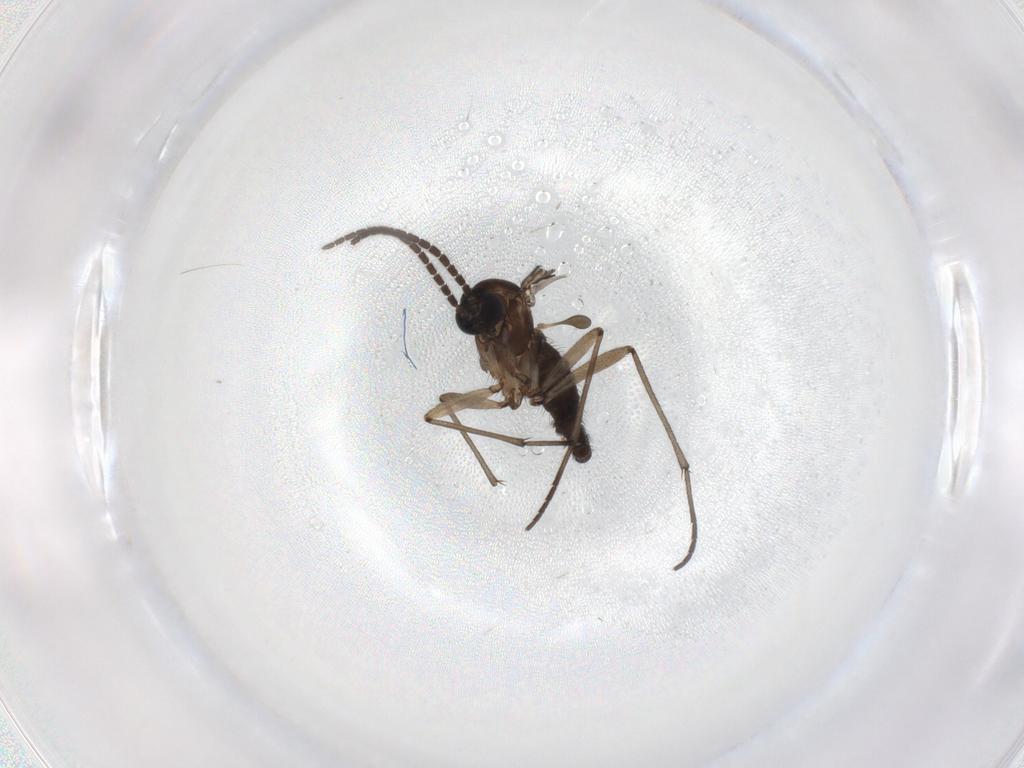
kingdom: Animalia
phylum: Arthropoda
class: Insecta
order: Diptera
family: Sciaridae
